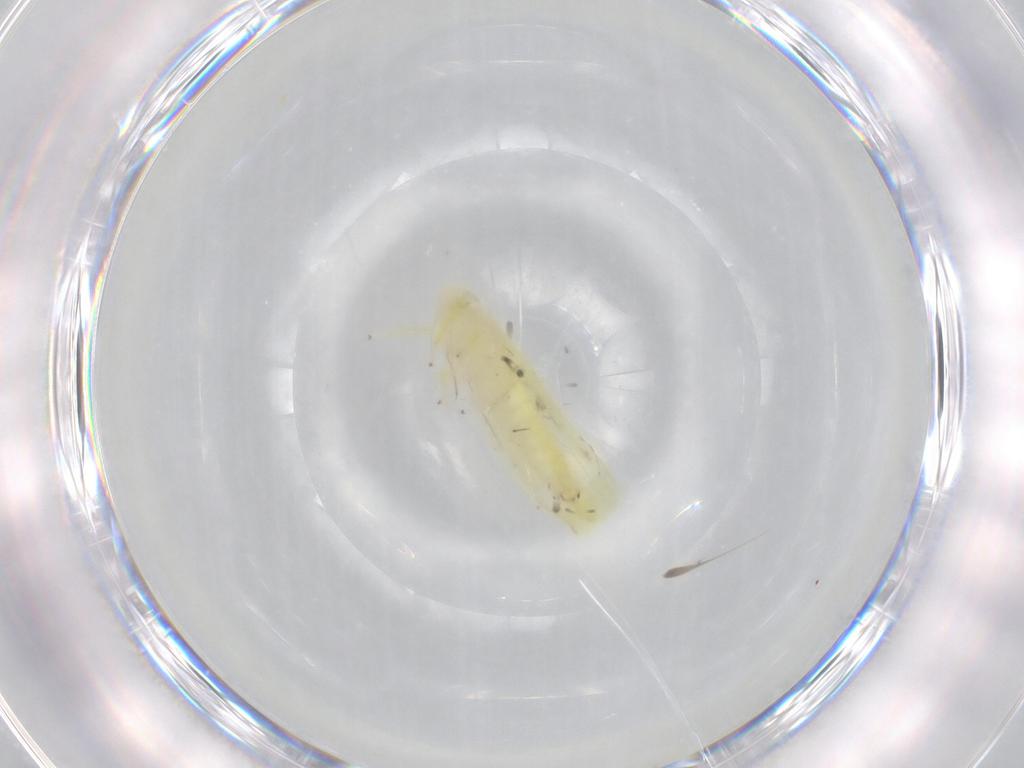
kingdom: Animalia
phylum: Arthropoda
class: Insecta
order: Hemiptera
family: Cicadellidae
